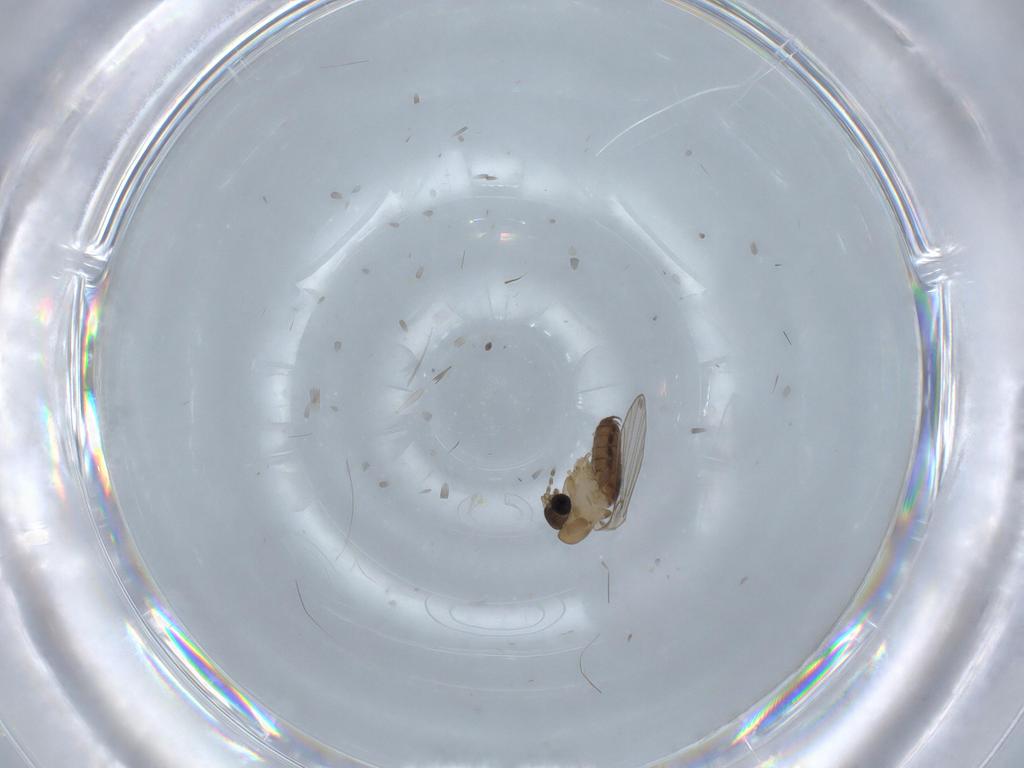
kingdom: Animalia
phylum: Arthropoda
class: Insecta
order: Diptera
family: Psychodidae
